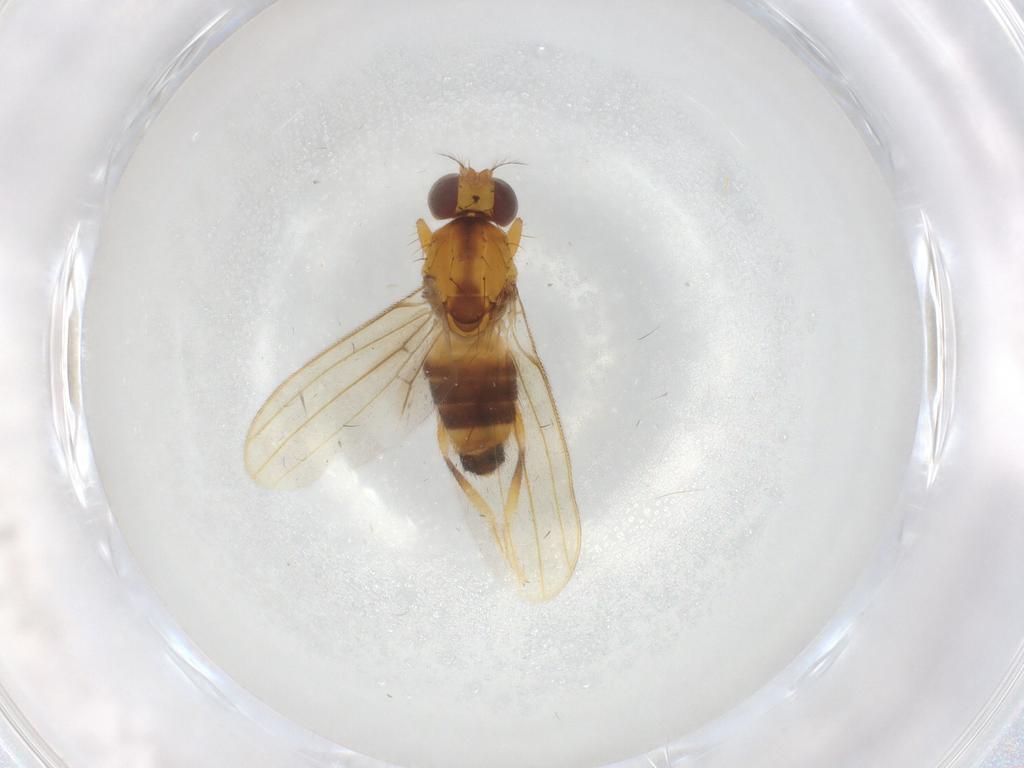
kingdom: Animalia
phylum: Arthropoda
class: Insecta
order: Diptera
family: Periscelididae
